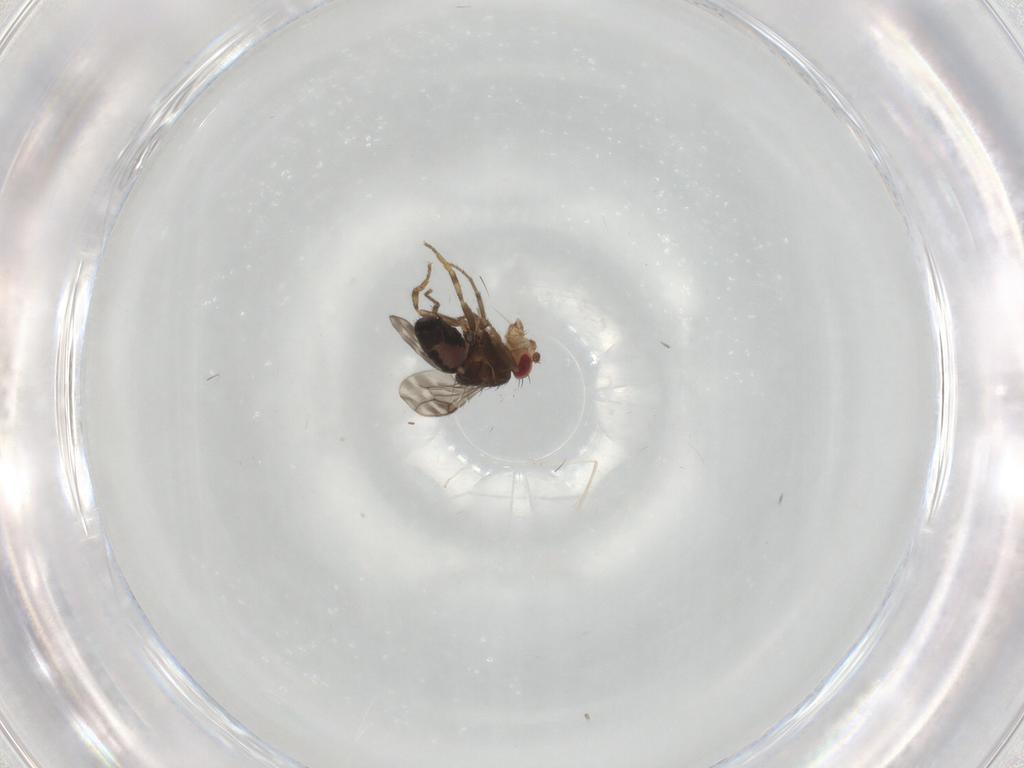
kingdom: Animalia
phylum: Arthropoda
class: Insecta
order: Diptera
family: Sphaeroceridae
